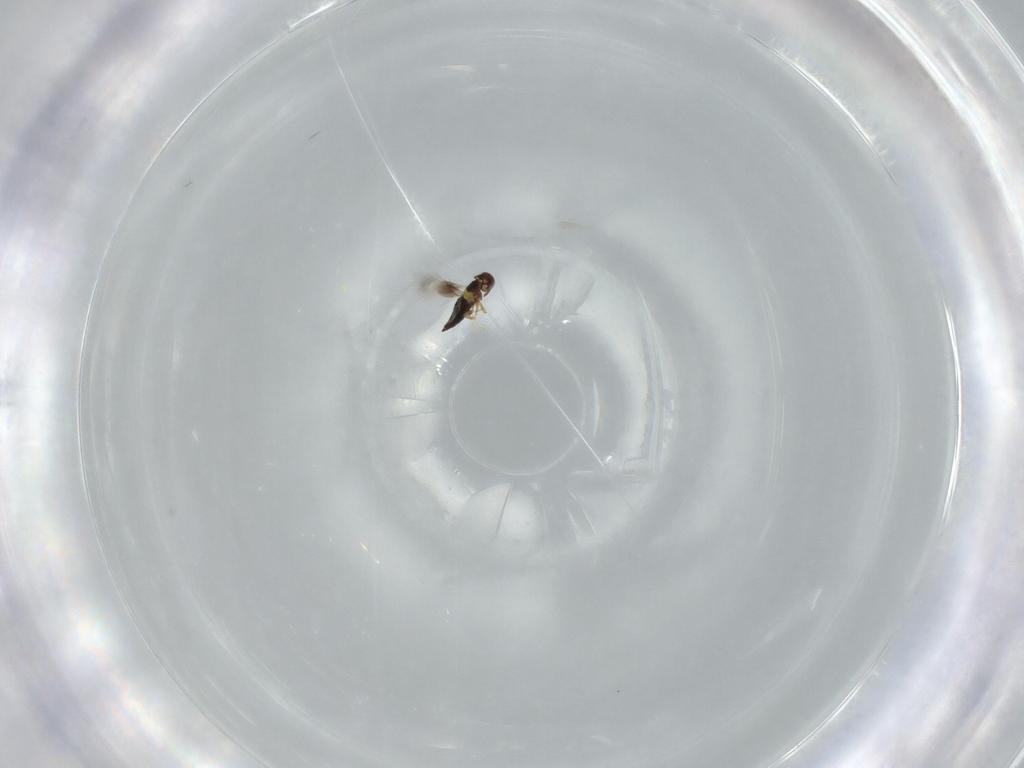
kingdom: Animalia
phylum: Arthropoda
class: Insecta
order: Hymenoptera
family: Signiphoridae
